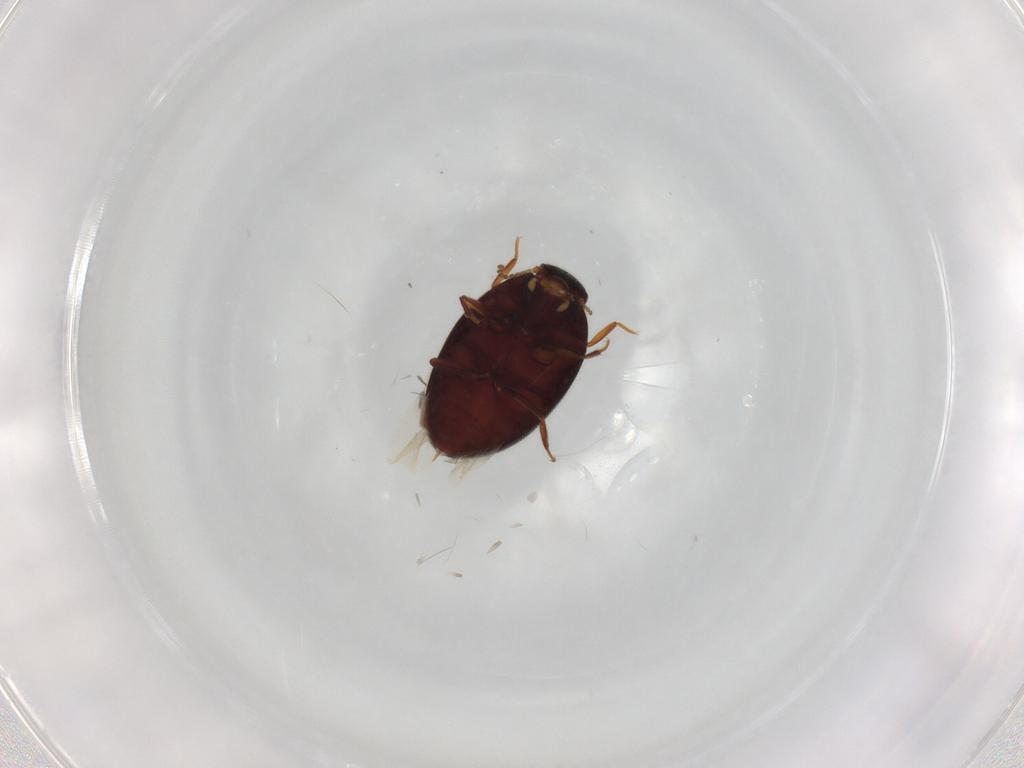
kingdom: Animalia
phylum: Arthropoda
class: Insecta
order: Coleoptera
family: Limnichidae
